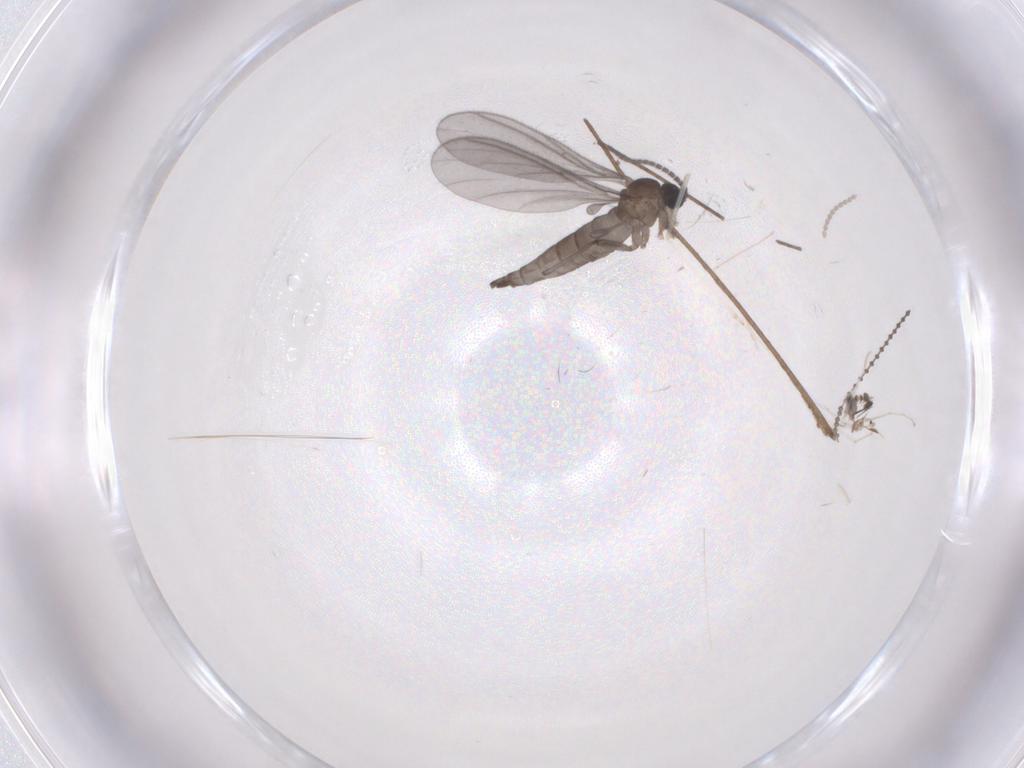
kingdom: Animalia
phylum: Arthropoda
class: Insecta
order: Diptera
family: Sciaridae
